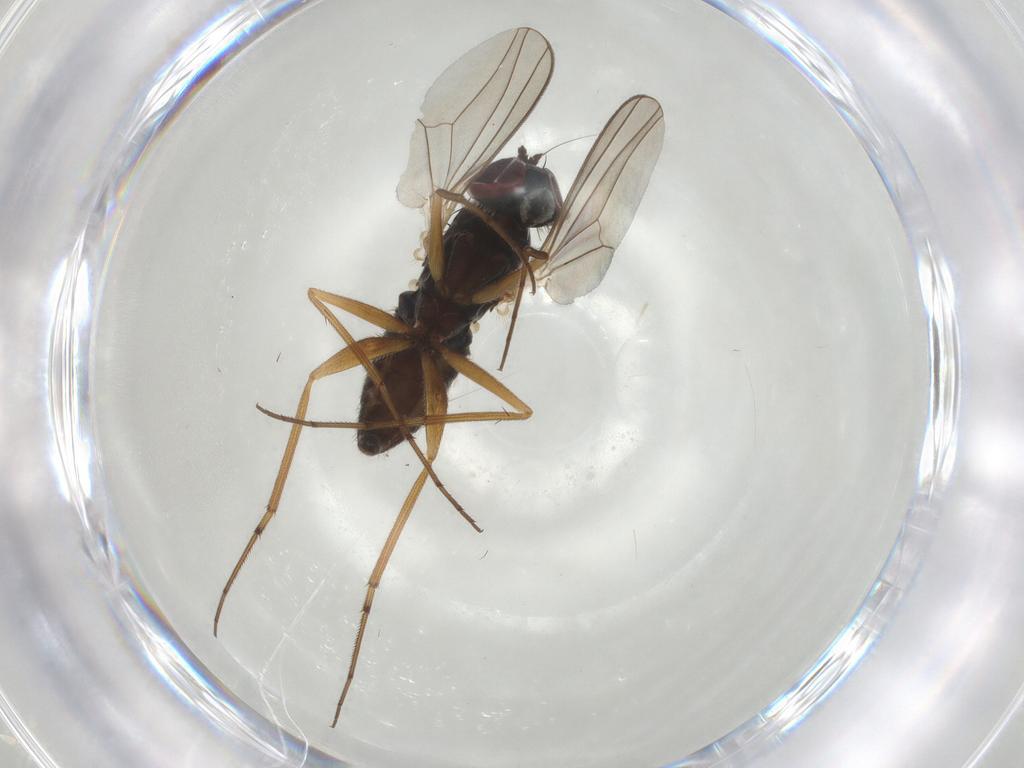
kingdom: Animalia
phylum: Arthropoda
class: Insecta
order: Diptera
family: Dolichopodidae
